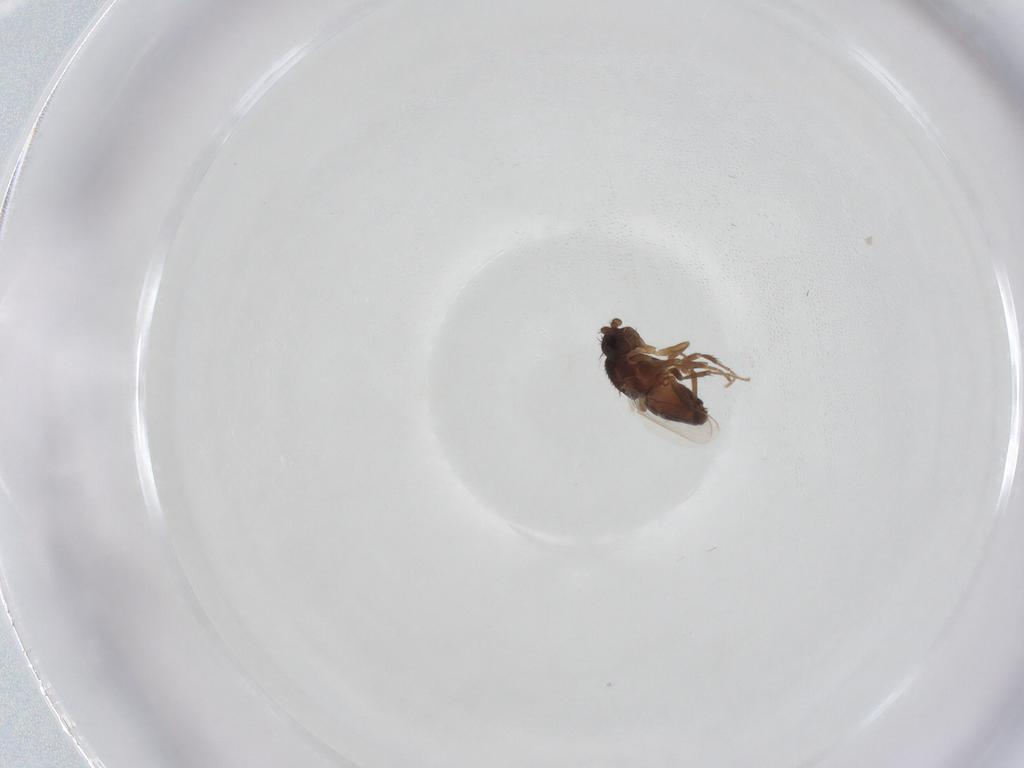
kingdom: Animalia
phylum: Arthropoda
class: Insecta
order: Diptera
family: Sphaeroceridae
